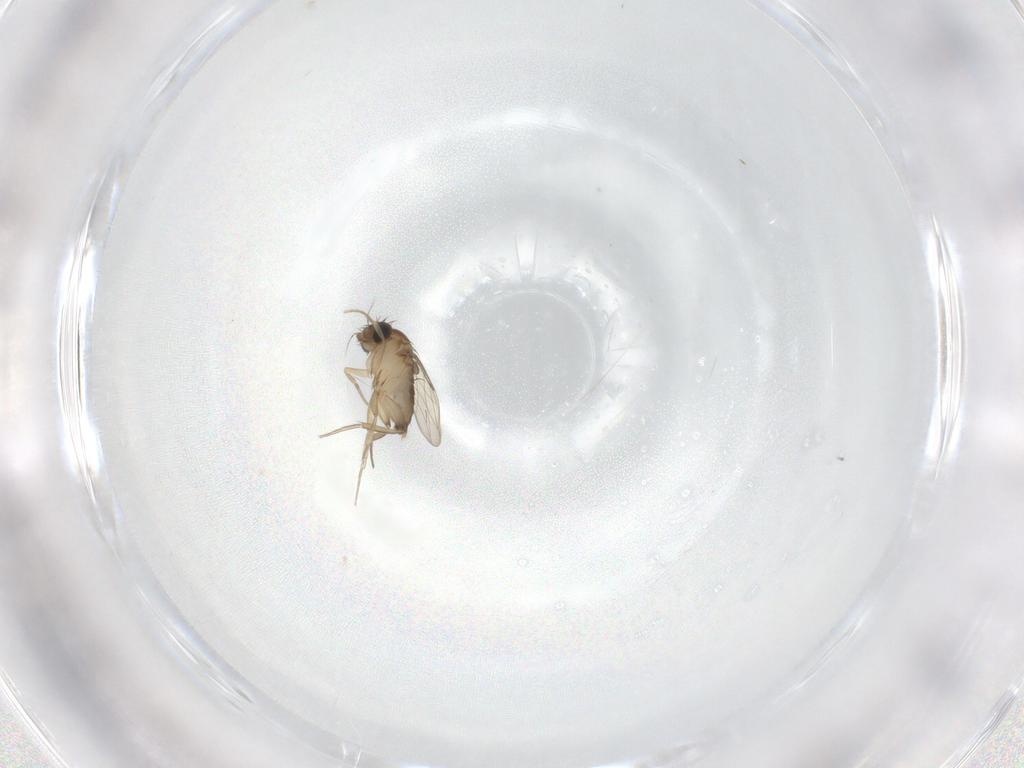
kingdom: Animalia
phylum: Arthropoda
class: Insecta
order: Diptera
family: Phoridae
